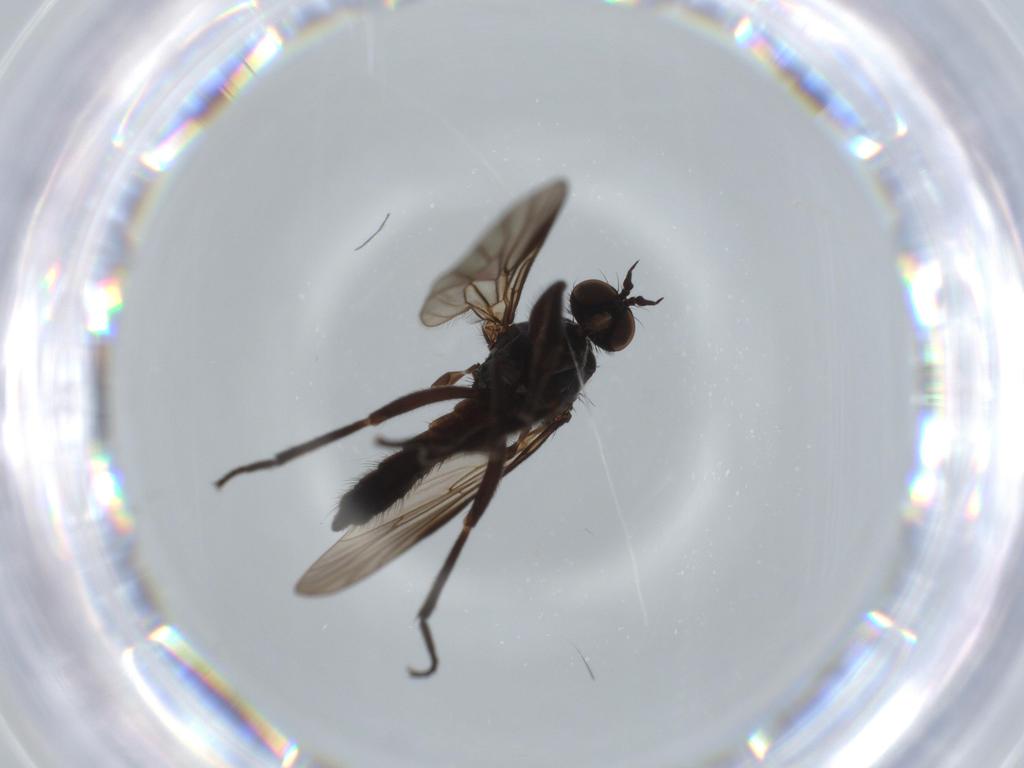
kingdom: Animalia
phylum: Arthropoda
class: Insecta
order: Diptera
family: Empididae
